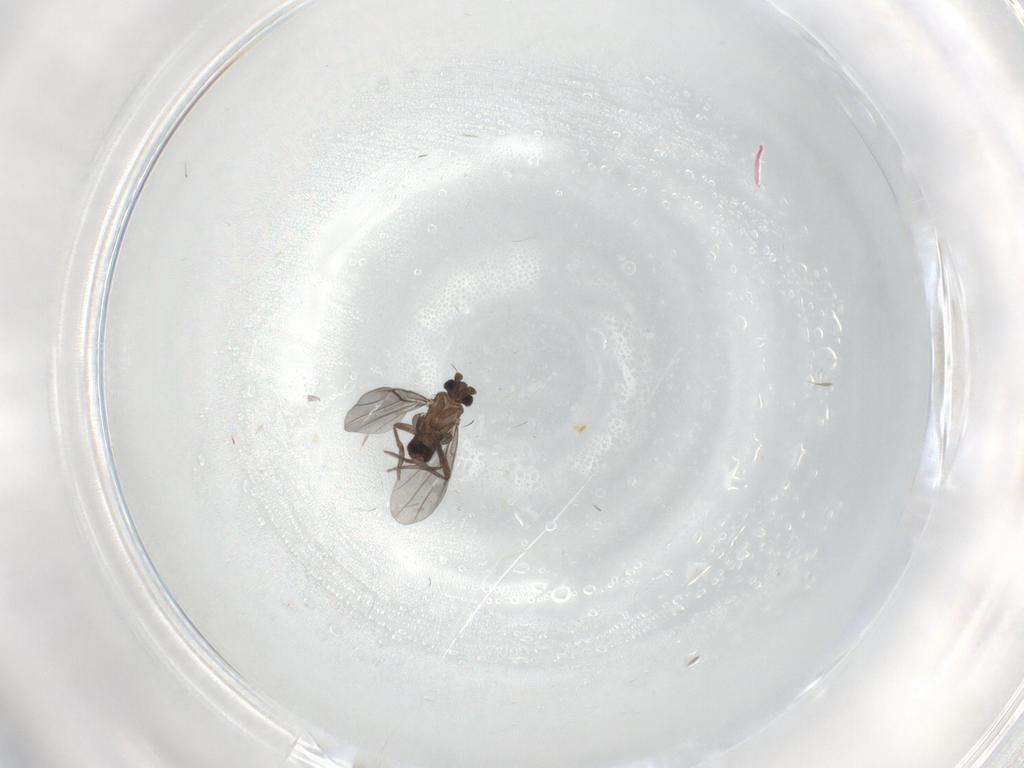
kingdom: Animalia
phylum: Arthropoda
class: Insecta
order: Diptera
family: Phoridae
